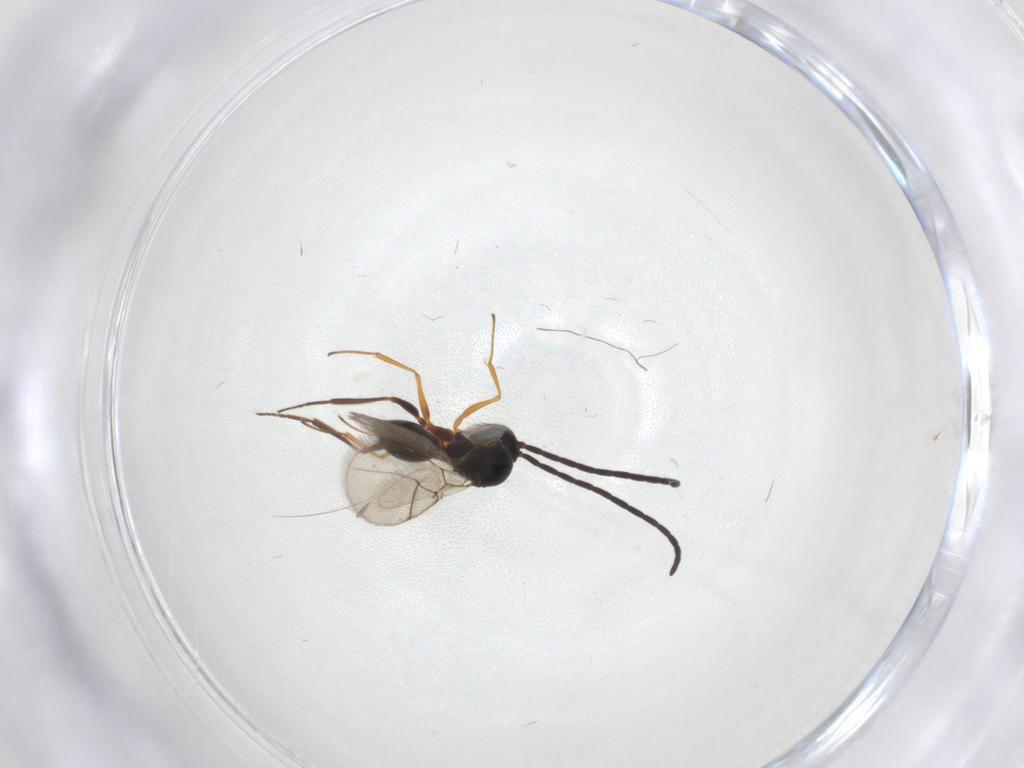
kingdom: Animalia
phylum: Arthropoda
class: Insecta
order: Hymenoptera
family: Figitidae
